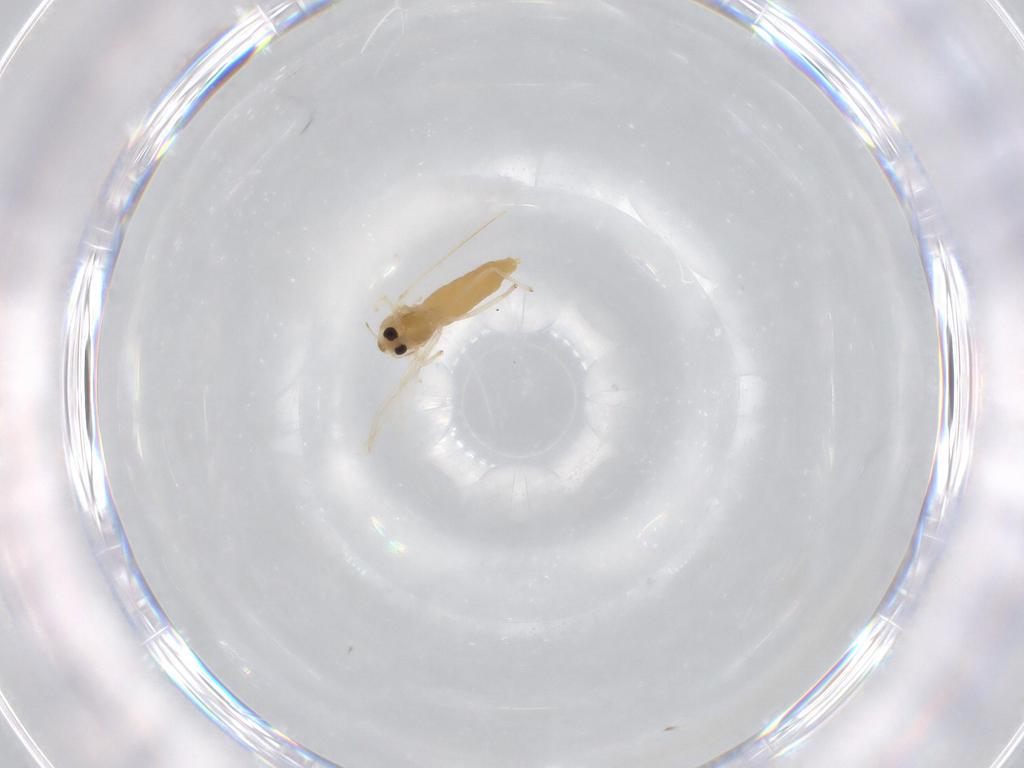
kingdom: Animalia
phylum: Arthropoda
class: Insecta
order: Diptera
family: Chironomidae
